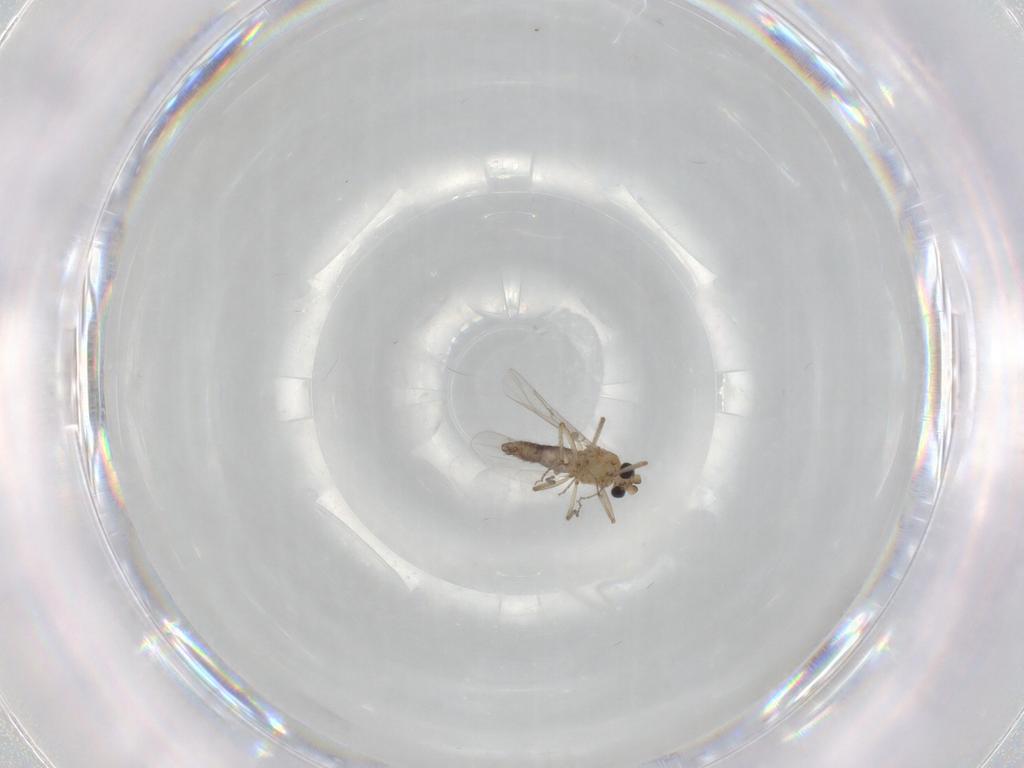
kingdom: Animalia
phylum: Arthropoda
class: Insecta
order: Diptera
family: Ceratopogonidae
